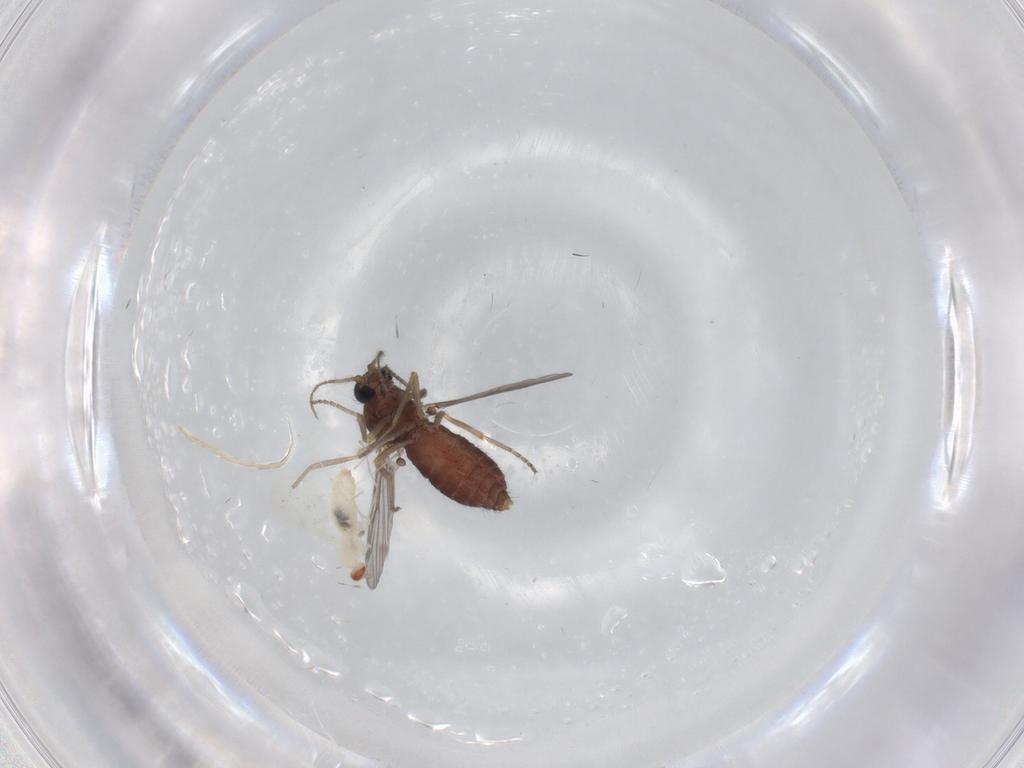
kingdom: Animalia
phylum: Arthropoda
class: Insecta
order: Diptera
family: Ceratopogonidae
